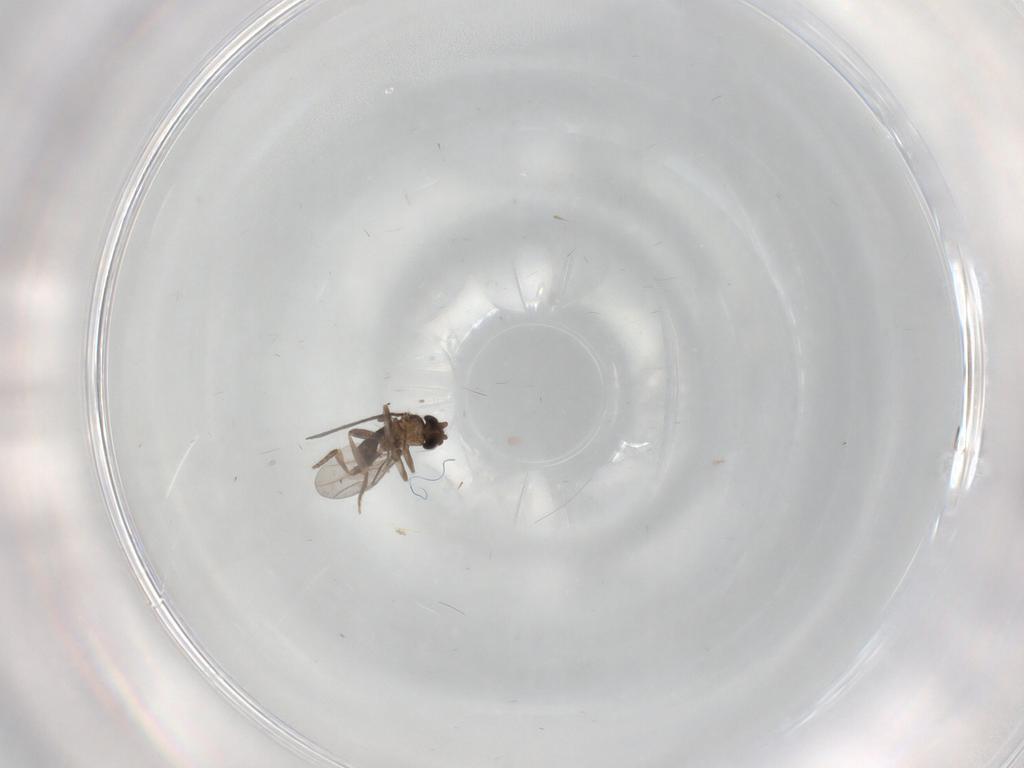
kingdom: Animalia
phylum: Arthropoda
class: Insecta
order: Diptera
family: Chironomidae
